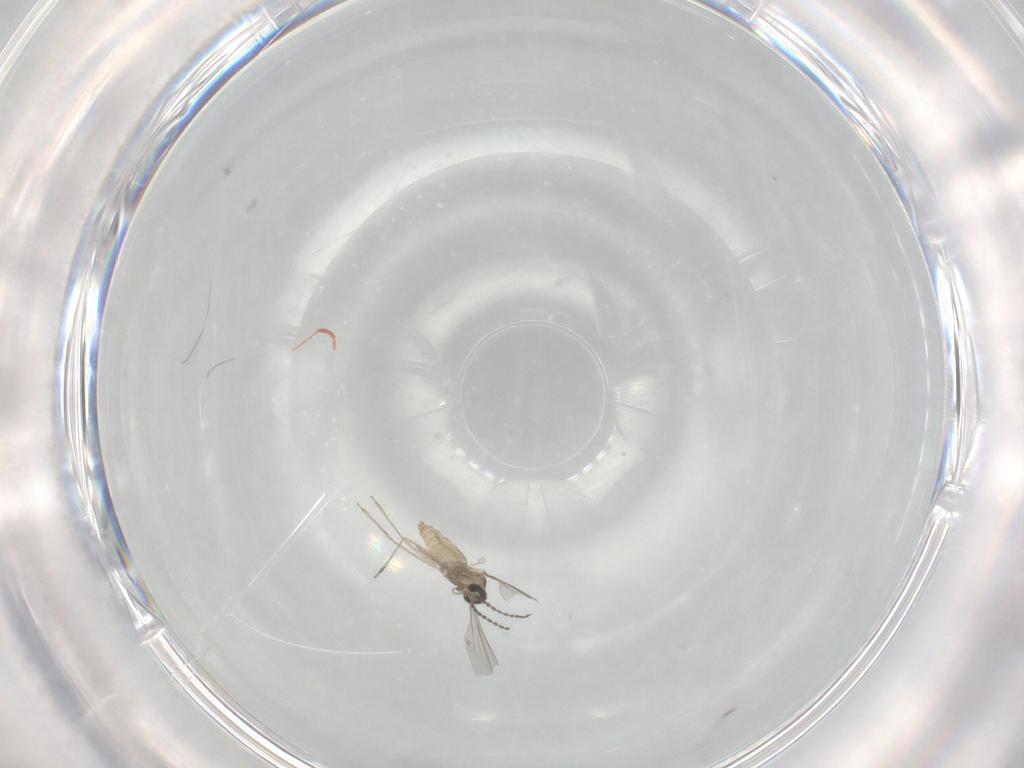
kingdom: Animalia
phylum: Arthropoda
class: Insecta
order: Diptera
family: Cecidomyiidae
